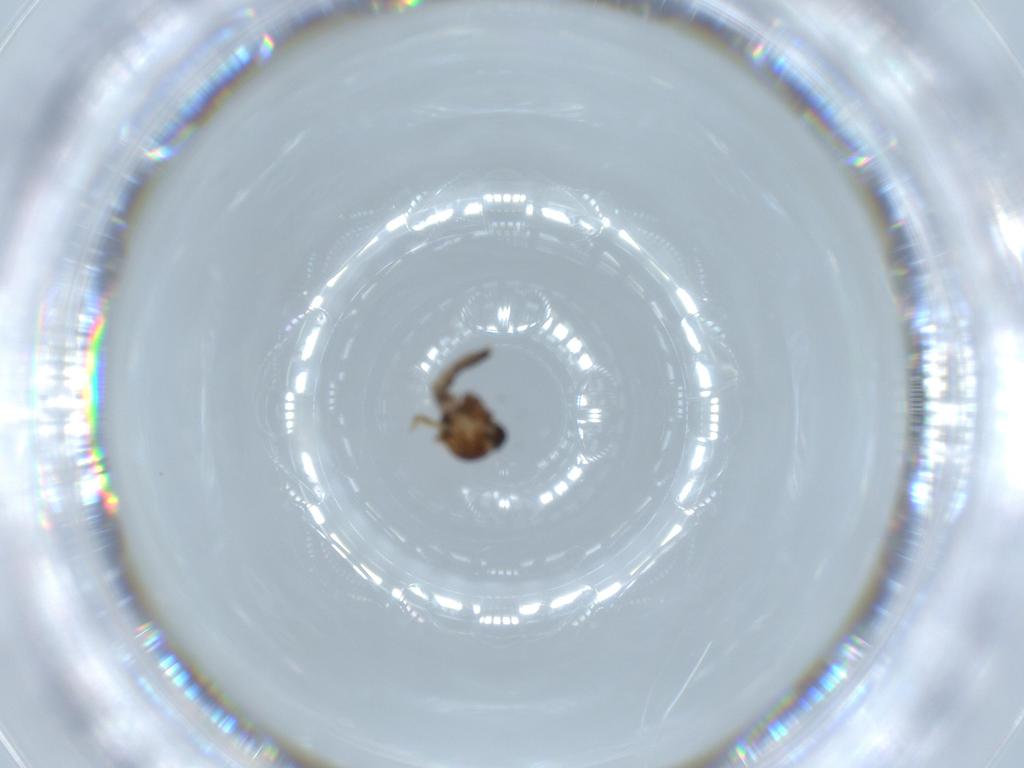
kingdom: Animalia
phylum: Arthropoda
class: Insecta
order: Diptera
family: Ceratopogonidae
